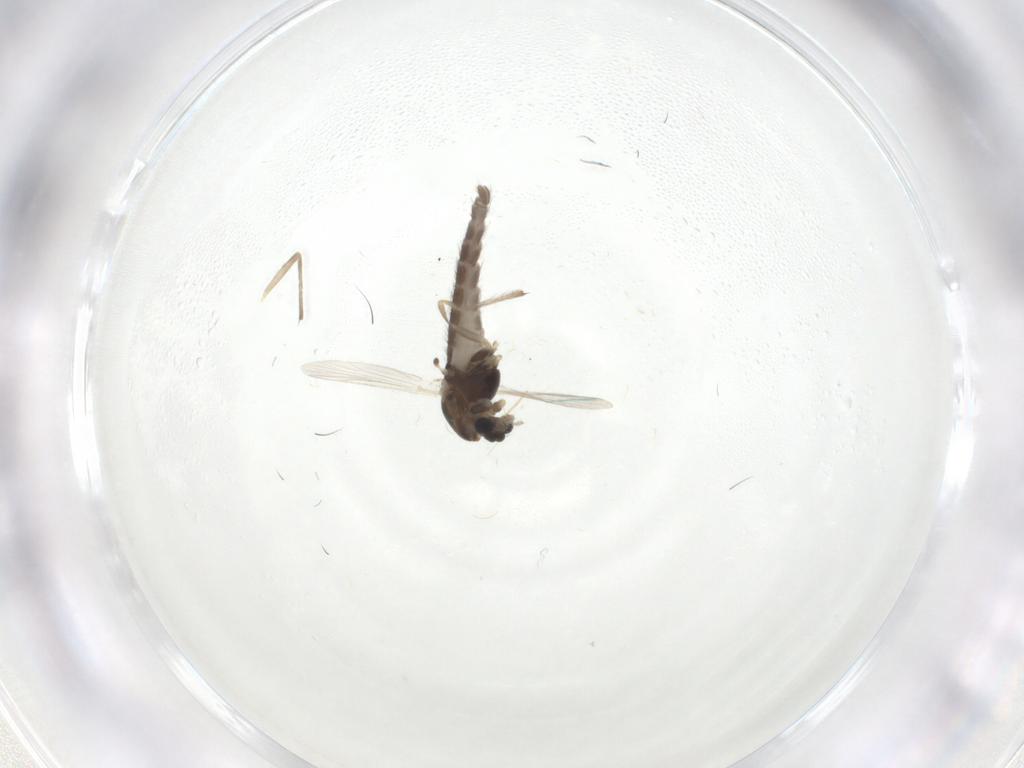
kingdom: Animalia
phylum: Arthropoda
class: Insecta
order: Diptera
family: Chironomidae
